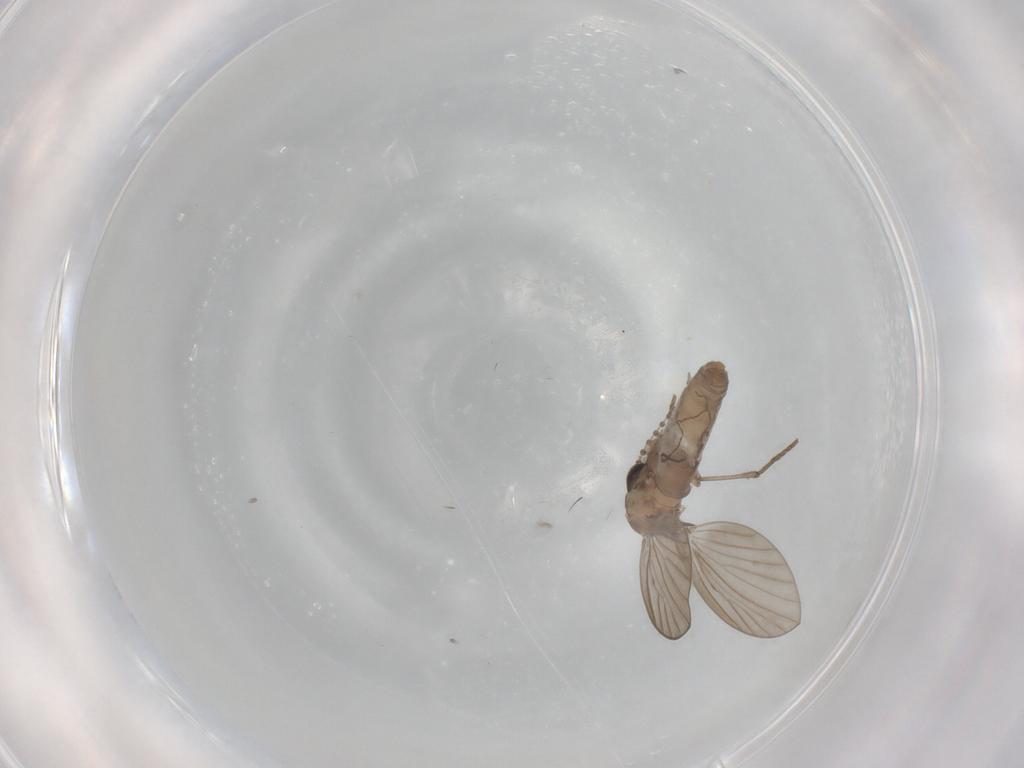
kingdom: Animalia
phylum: Arthropoda
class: Insecta
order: Diptera
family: Psychodidae
